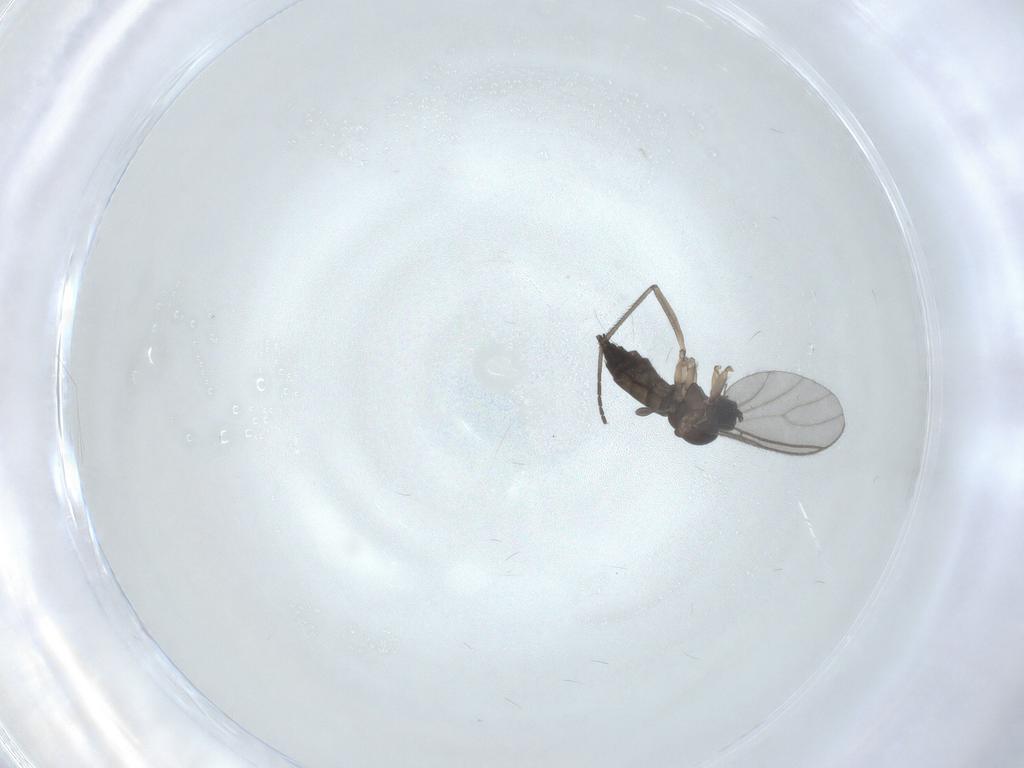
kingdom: Animalia
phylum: Arthropoda
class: Insecta
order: Diptera
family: Sciaridae
